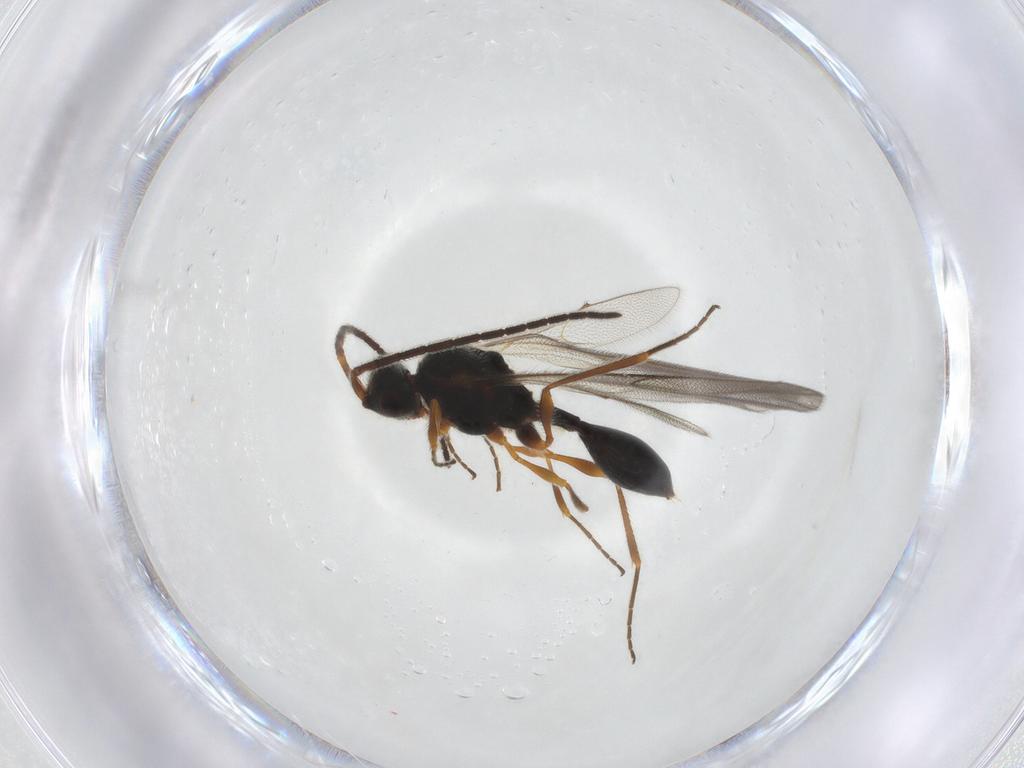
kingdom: Animalia
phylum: Arthropoda
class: Insecta
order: Hymenoptera
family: Diapriidae
